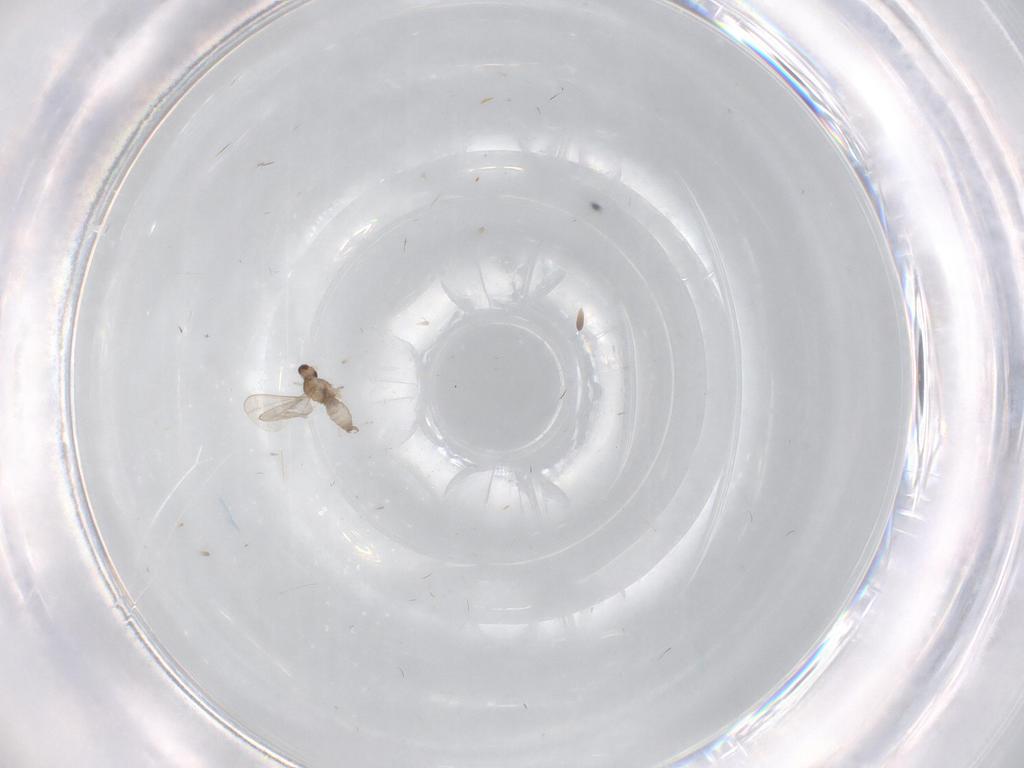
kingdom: Animalia
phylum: Arthropoda
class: Insecta
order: Diptera
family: Cecidomyiidae
